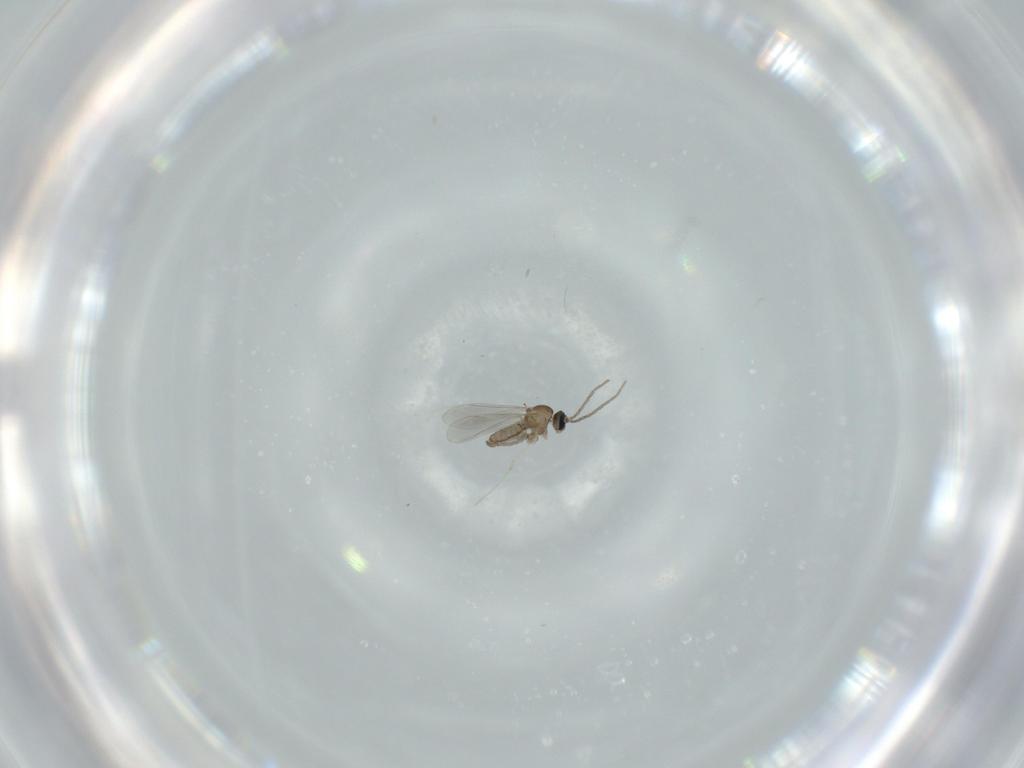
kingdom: Animalia
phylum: Arthropoda
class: Insecta
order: Diptera
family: Cecidomyiidae
